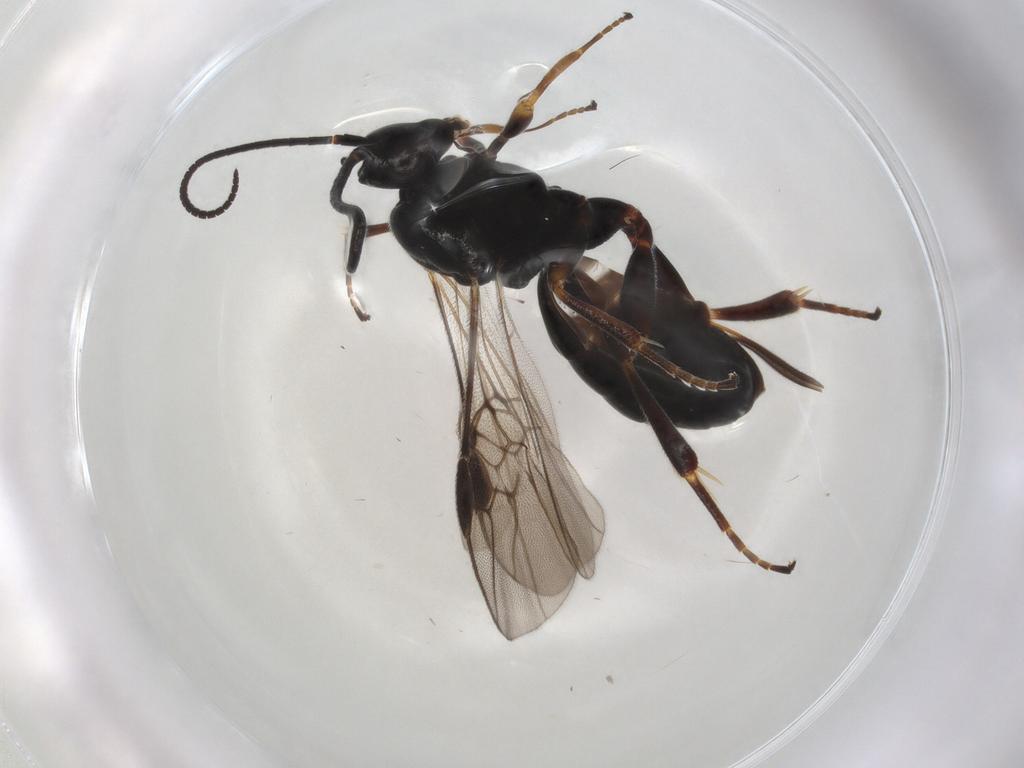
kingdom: Animalia
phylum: Arthropoda
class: Insecta
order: Hymenoptera
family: Braconidae
